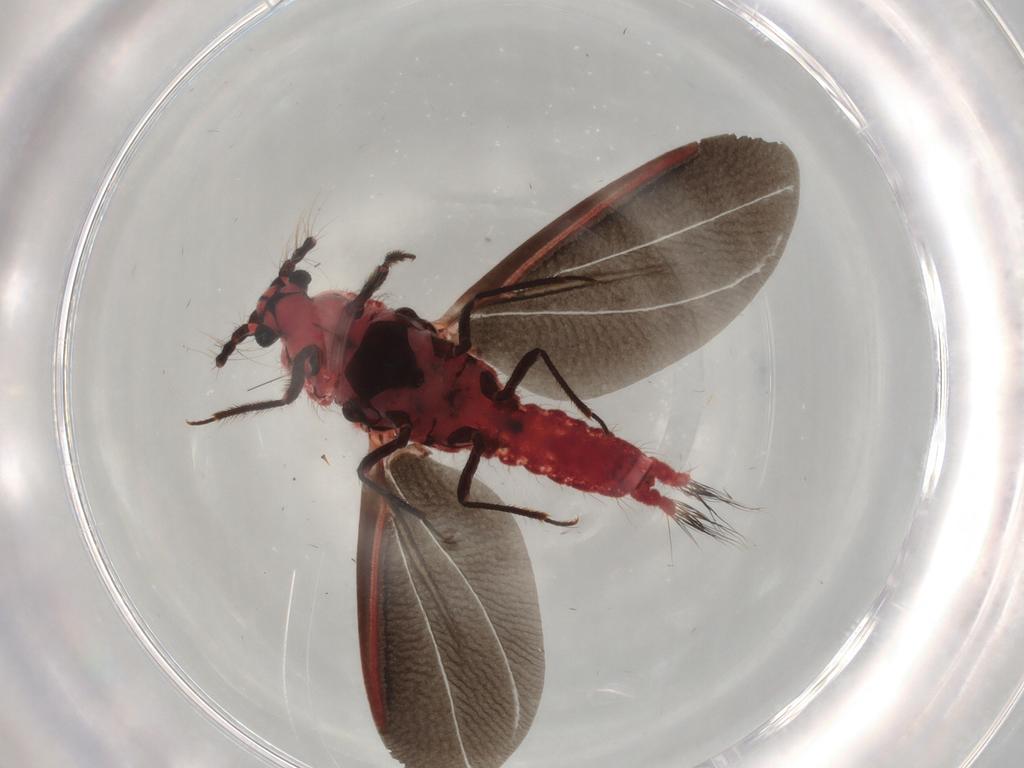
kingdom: Animalia
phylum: Arthropoda
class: Insecta
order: Hemiptera
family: Coccoidea_incertae_sedis
